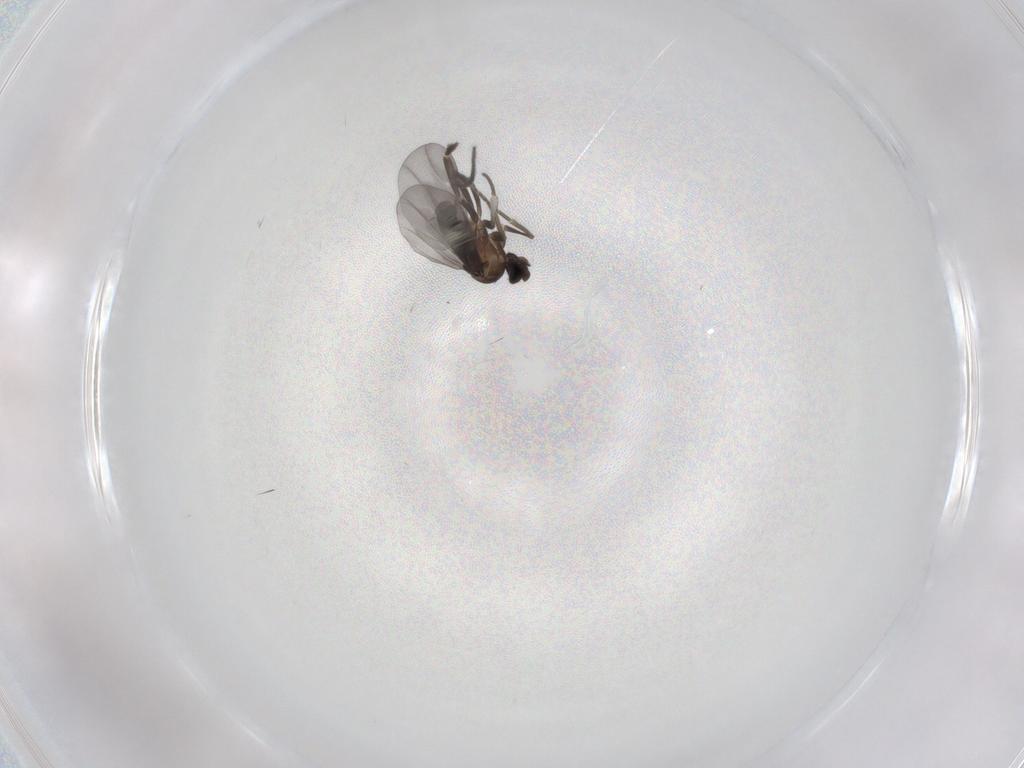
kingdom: Animalia
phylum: Arthropoda
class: Insecta
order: Diptera
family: Phoridae
